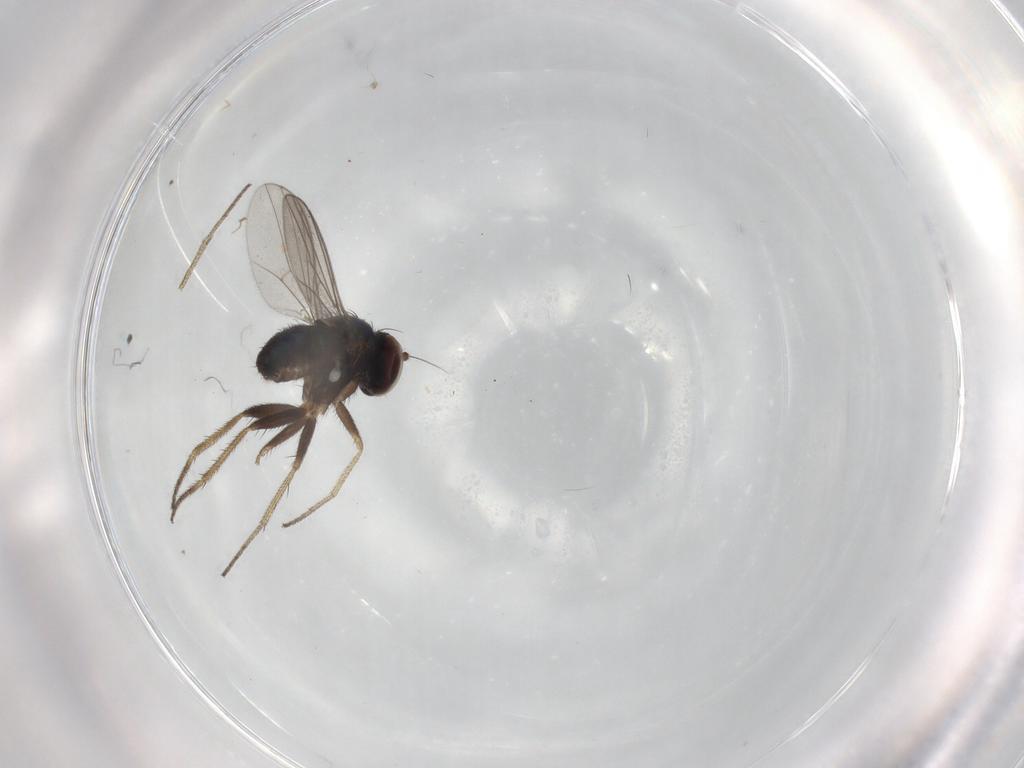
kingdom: Animalia
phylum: Arthropoda
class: Insecta
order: Diptera
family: Dolichopodidae
